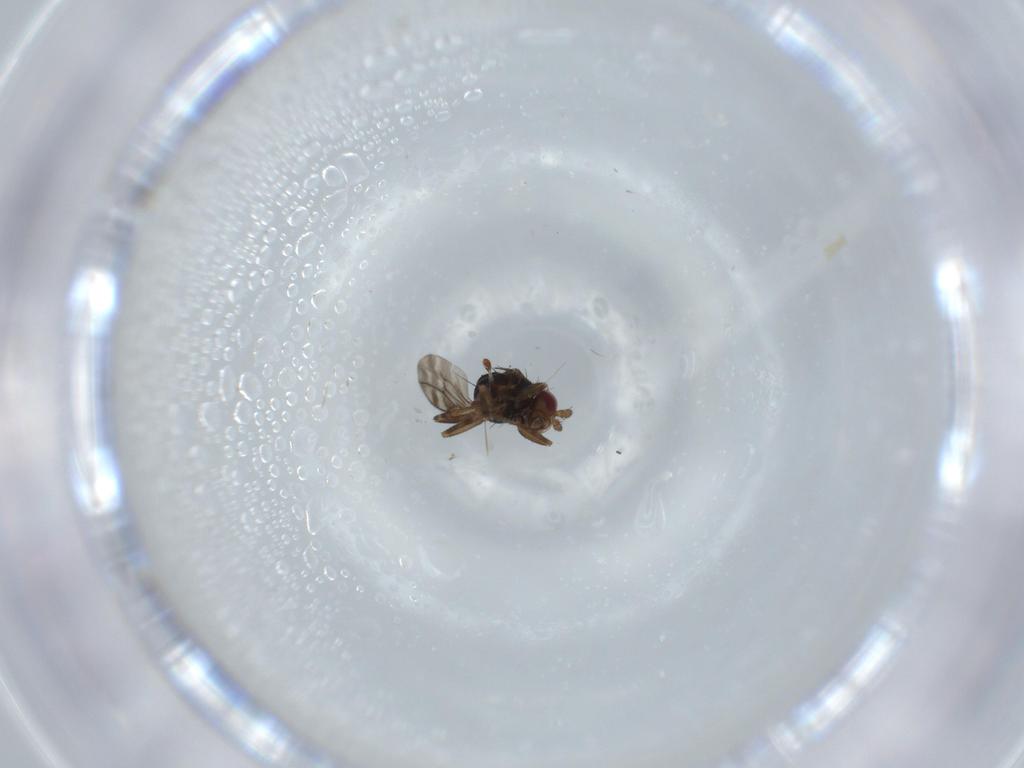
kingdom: Animalia
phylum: Arthropoda
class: Insecta
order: Diptera
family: Sphaeroceridae
